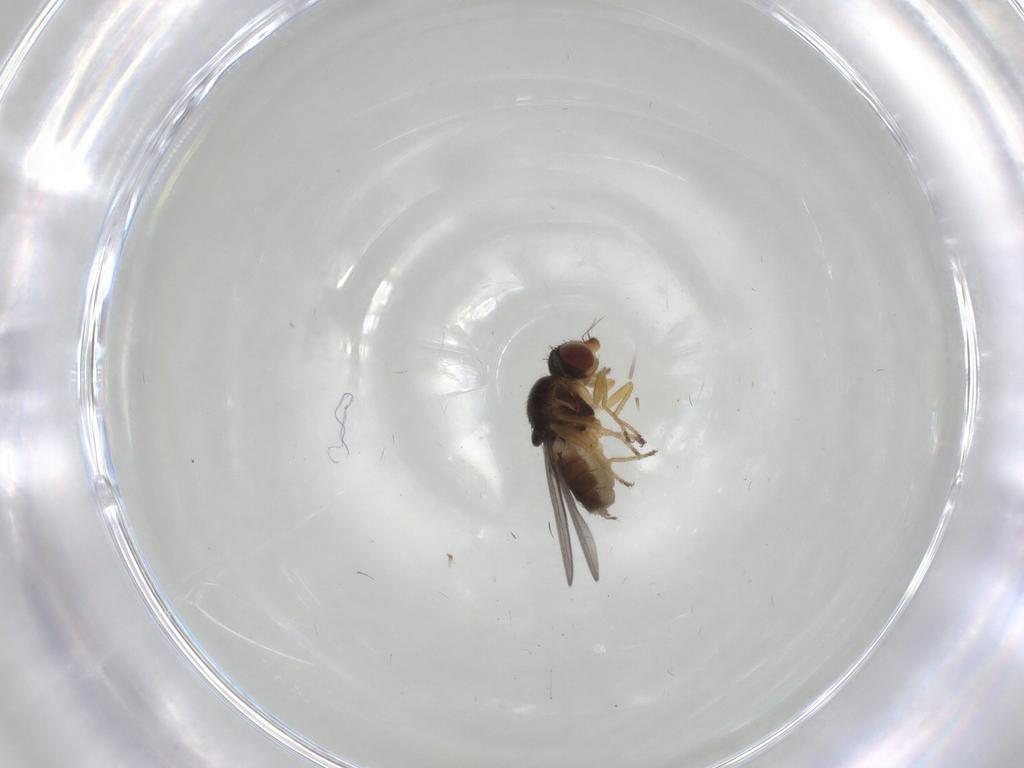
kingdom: Animalia
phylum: Arthropoda
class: Insecta
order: Diptera
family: Chloropidae
